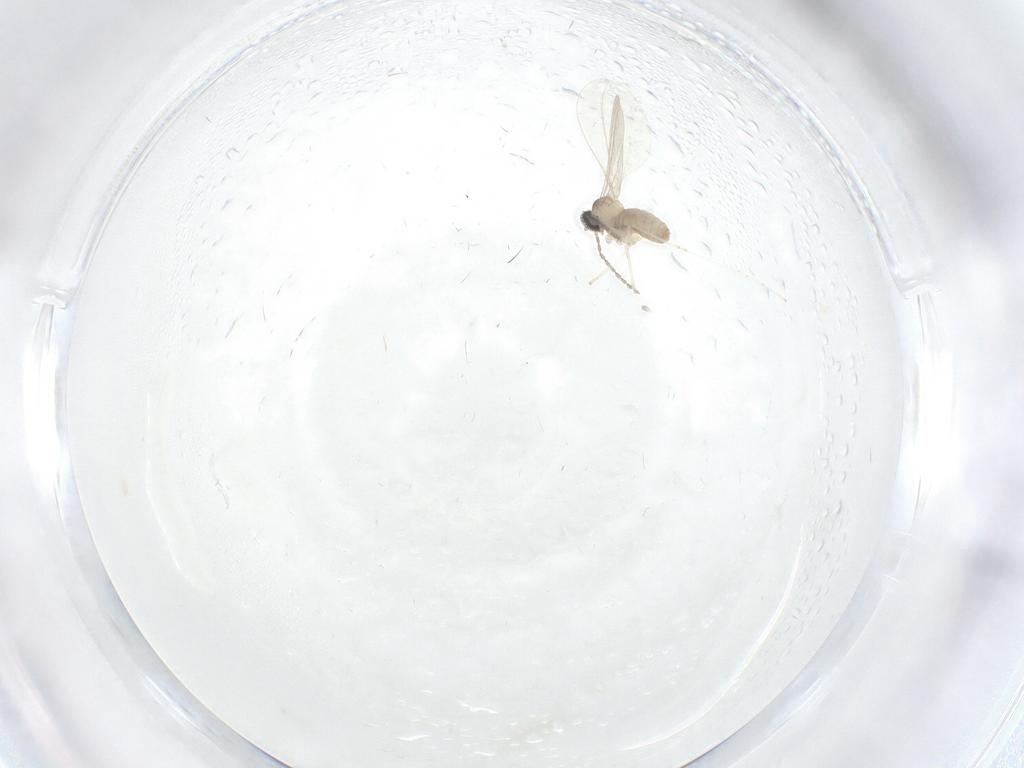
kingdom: Animalia
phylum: Arthropoda
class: Insecta
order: Diptera
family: Cecidomyiidae
